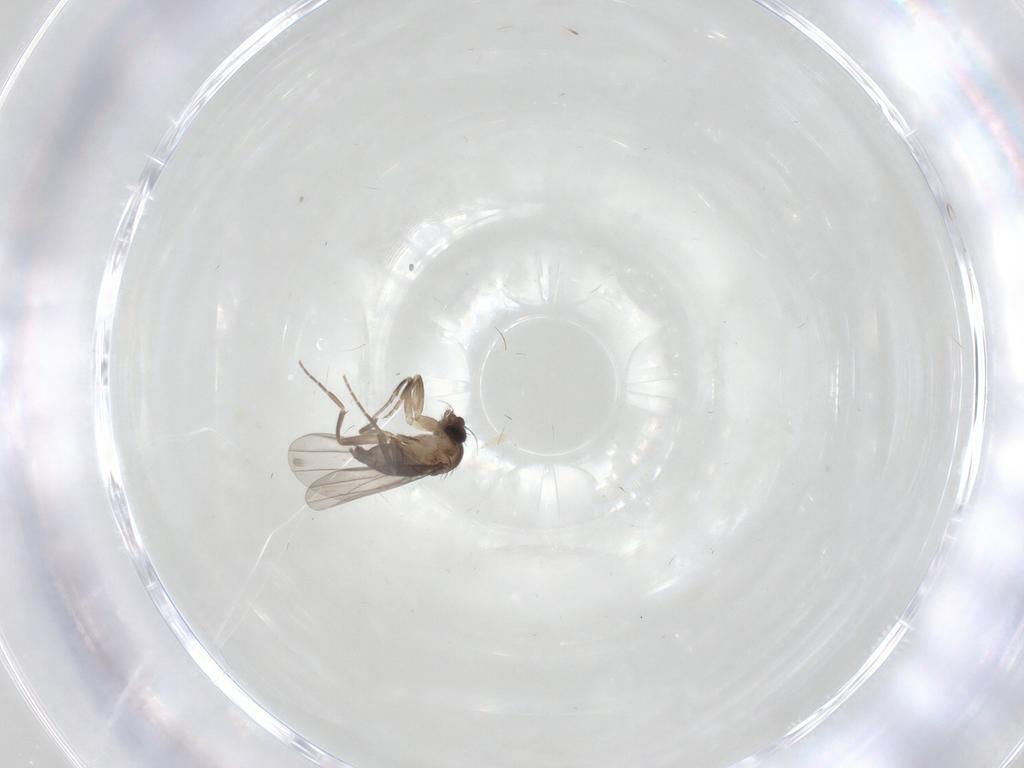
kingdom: Animalia
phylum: Arthropoda
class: Insecta
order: Diptera
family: Phoridae
